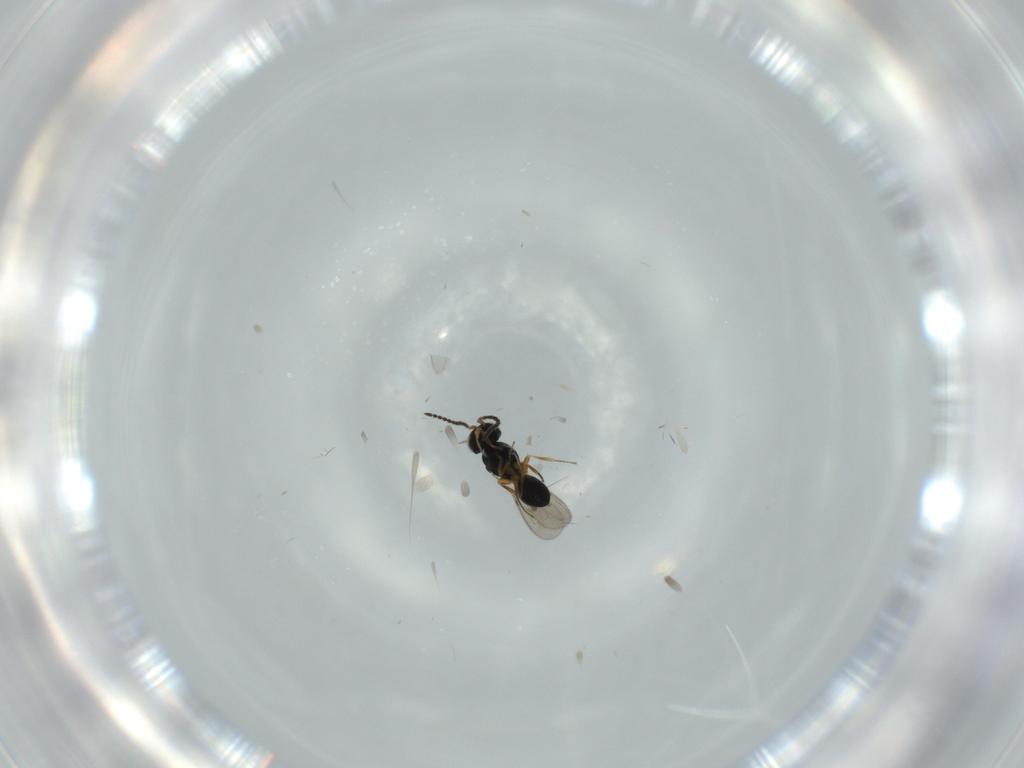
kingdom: Animalia
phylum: Arthropoda
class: Insecta
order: Hymenoptera
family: Scelionidae
